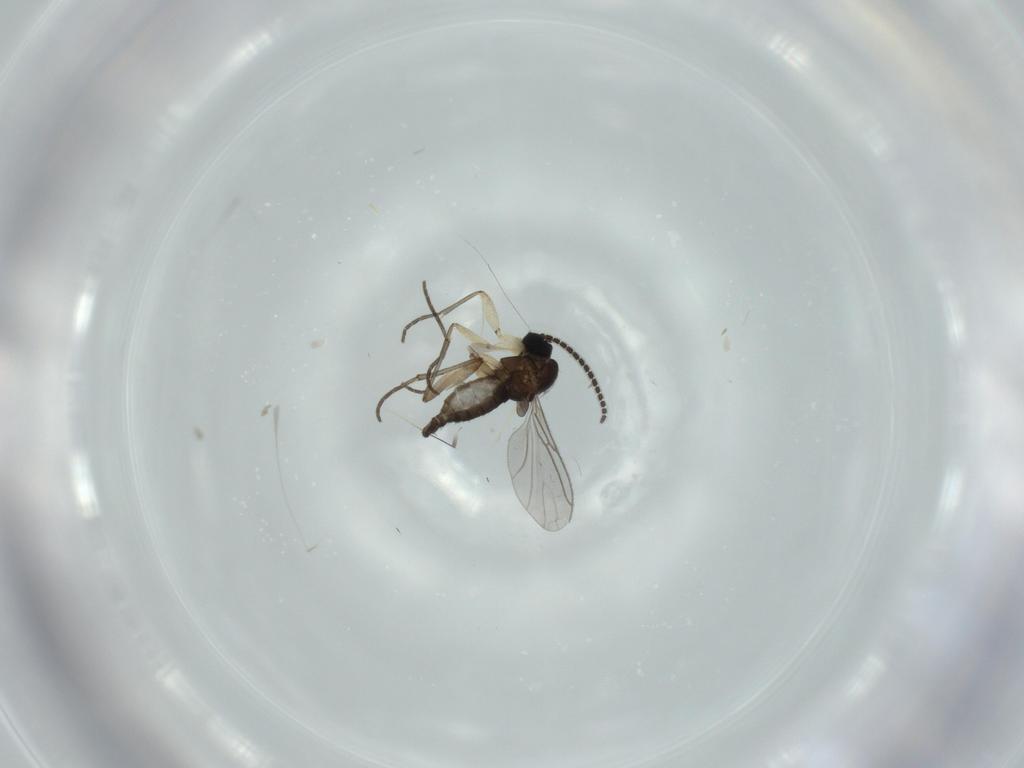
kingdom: Animalia
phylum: Arthropoda
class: Insecta
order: Diptera
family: Sciaridae
